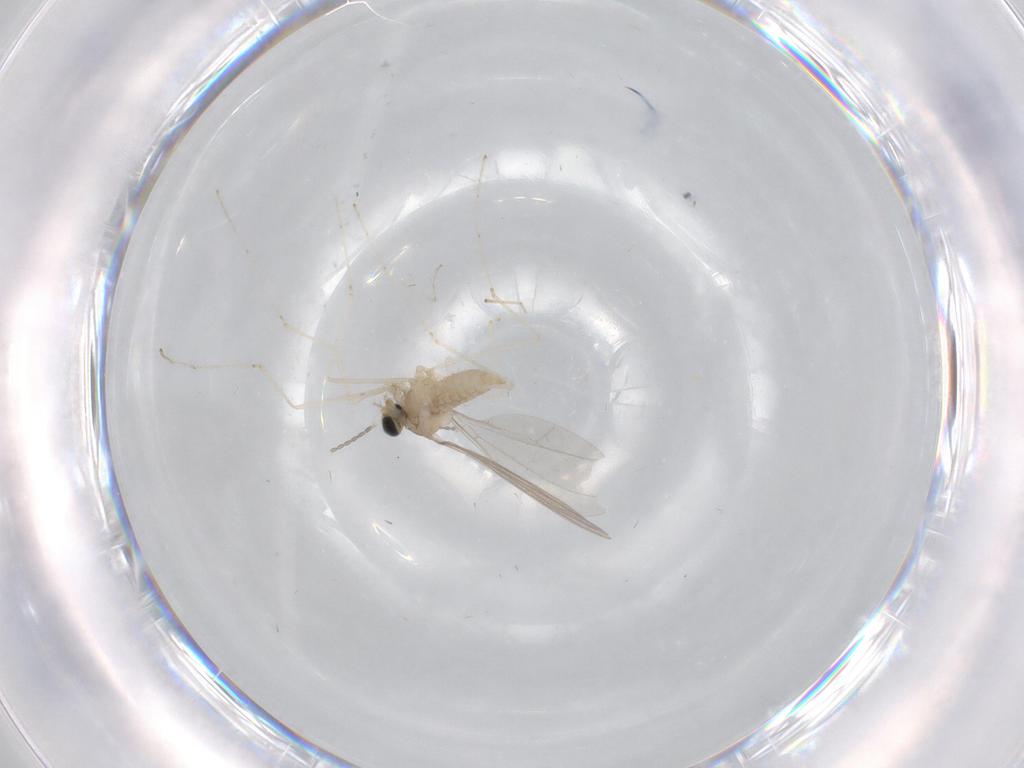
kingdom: Animalia
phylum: Arthropoda
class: Insecta
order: Diptera
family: Cecidomyiidae
